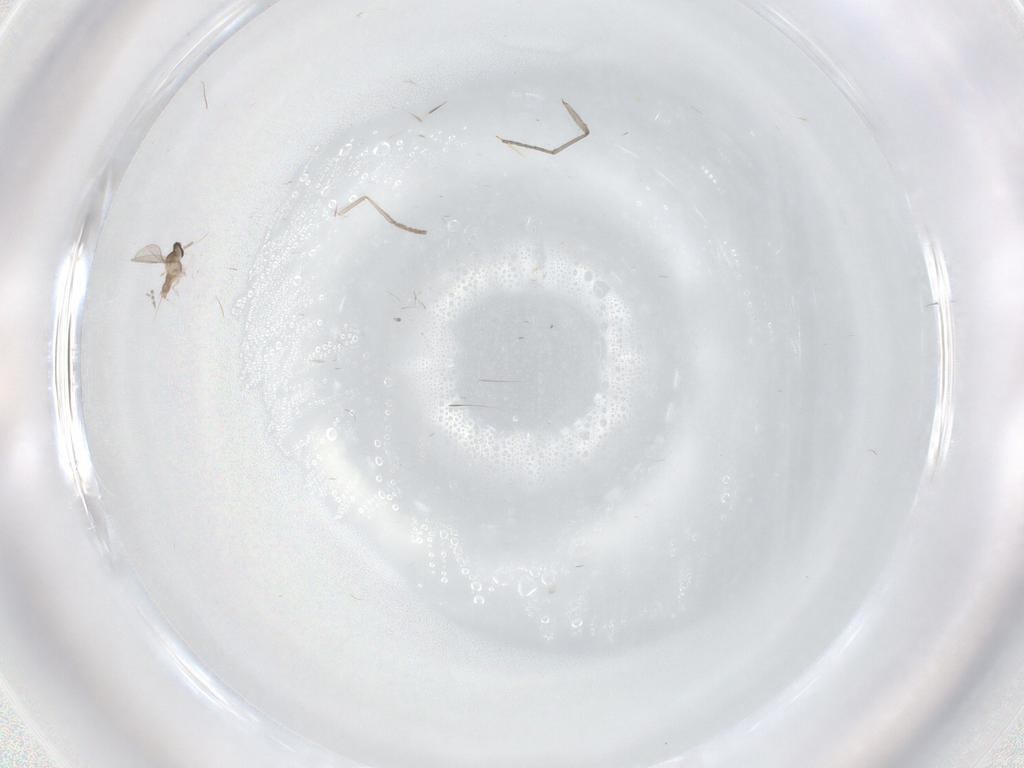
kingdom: Animalia
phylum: Arthropoda
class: Insecta
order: Diptera
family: Cecidomyiidae
